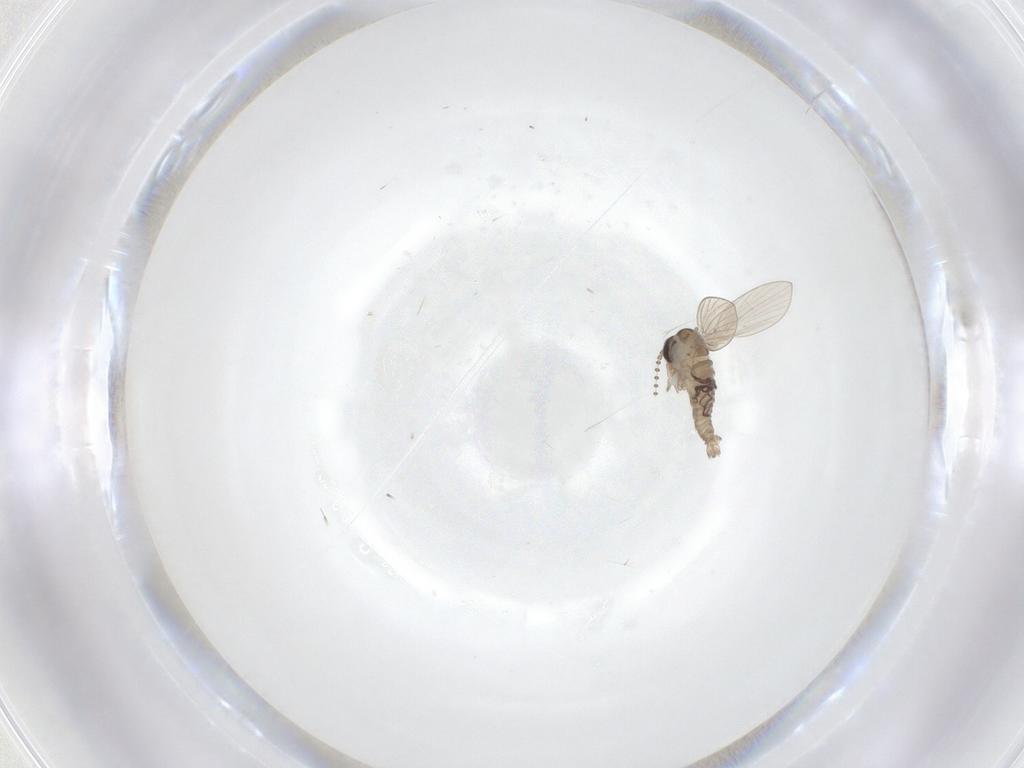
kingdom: Animalia
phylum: Arthropoda
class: Insecta
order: Diptera
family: Psychodidae
